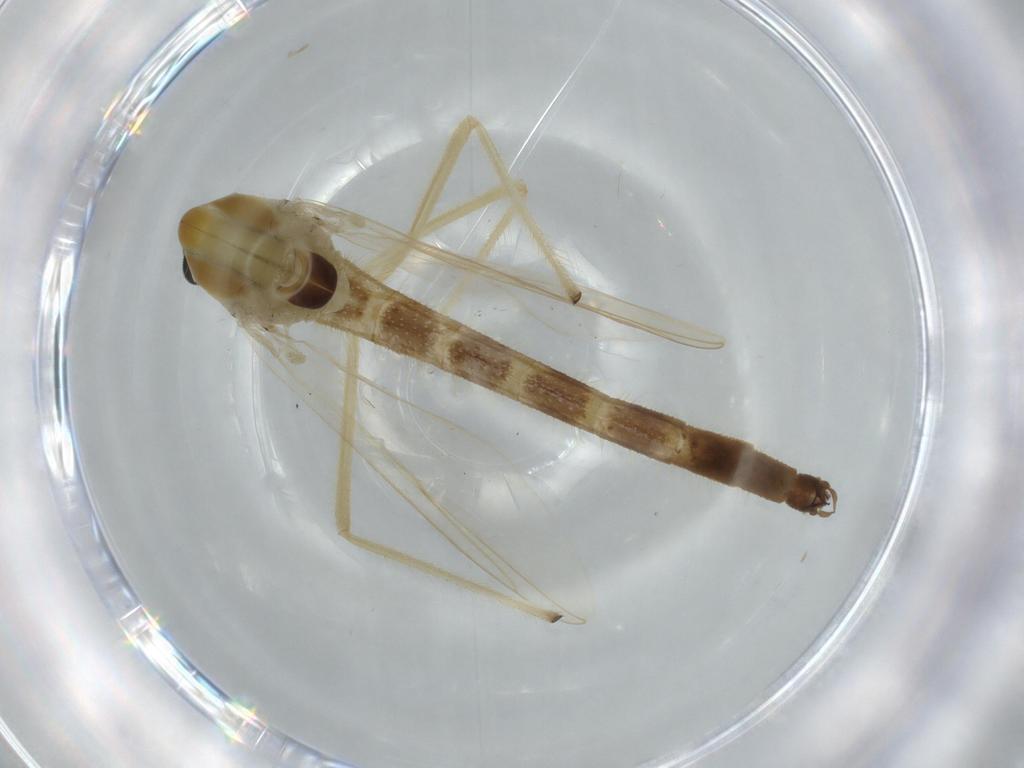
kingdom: Animalia
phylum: Arthropoda
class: Insecta
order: Diptera
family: Chironomidae
